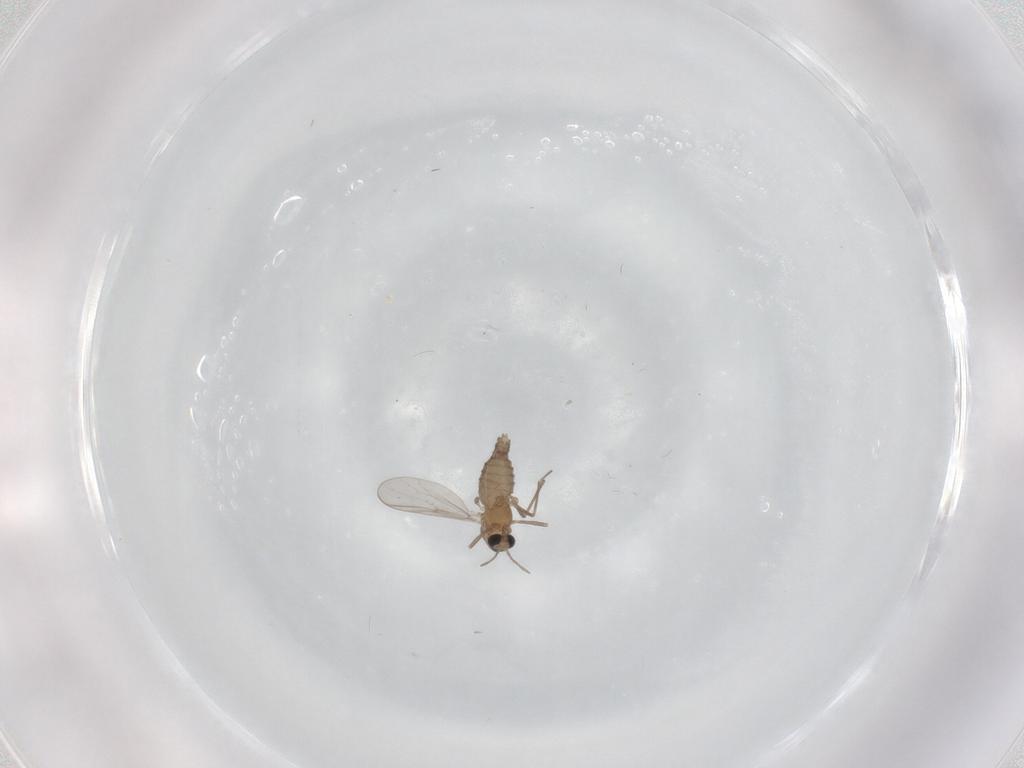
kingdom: Animalia
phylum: Arthropoda
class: Insecta
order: Diptera
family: Chironomidae
